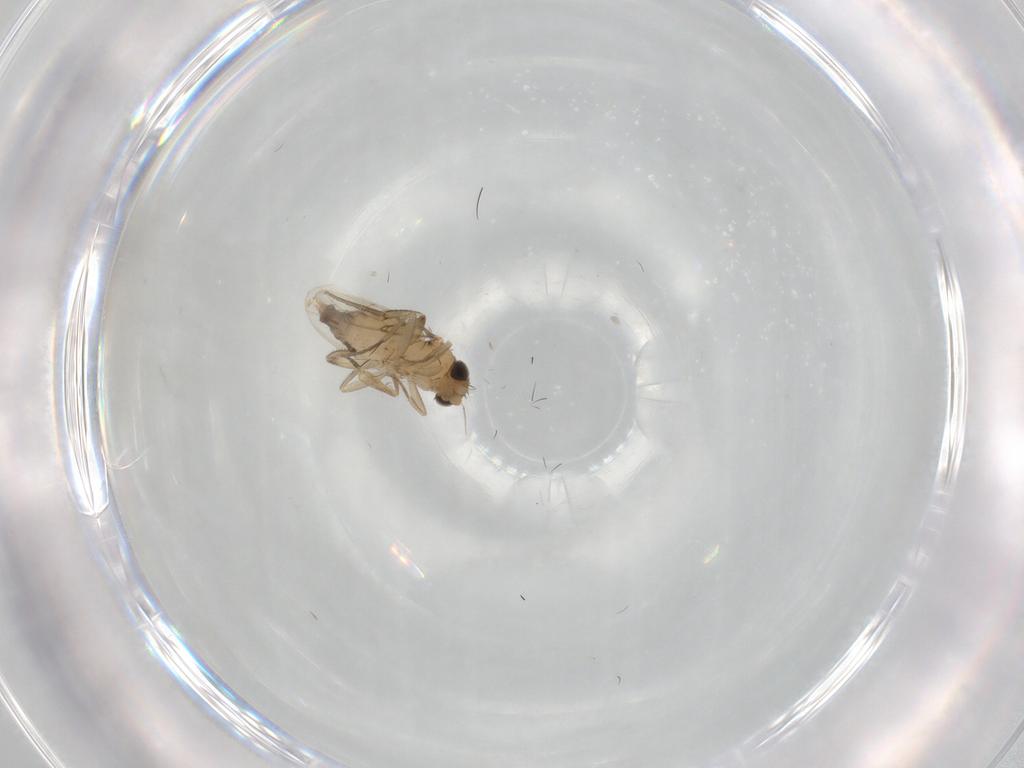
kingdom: Animalia
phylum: Arthropoda
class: Insecta
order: Diptera
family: Phoridae
